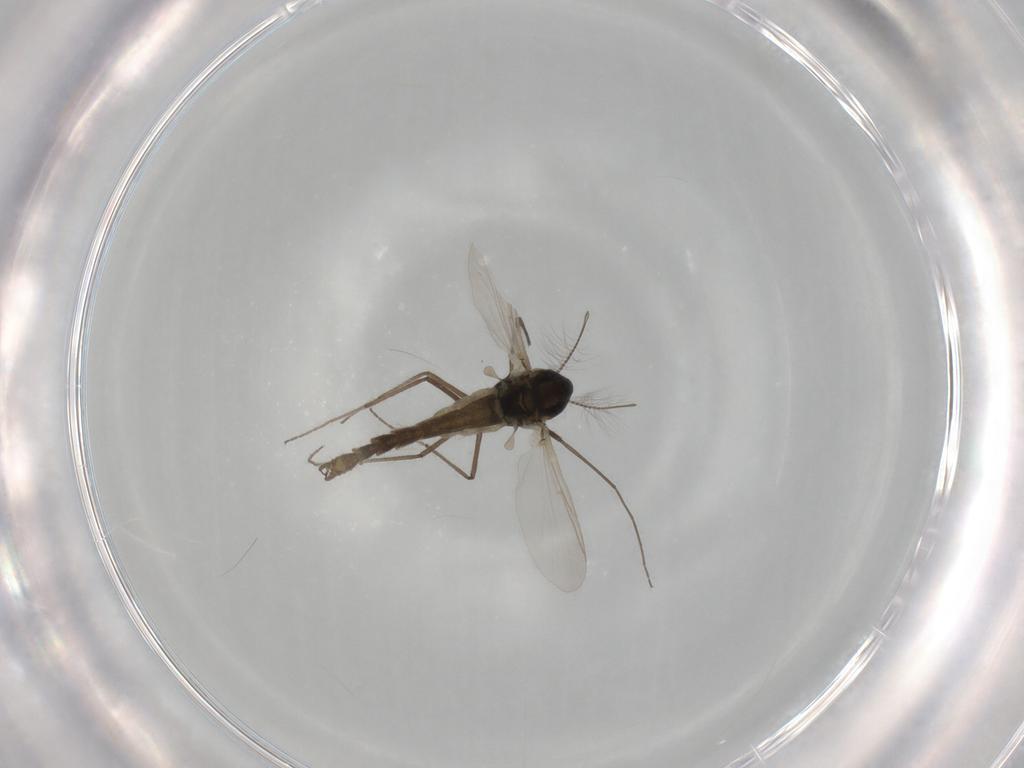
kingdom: Animalia
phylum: Arthropoda
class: Insecta
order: Diptera
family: Chironomidae
